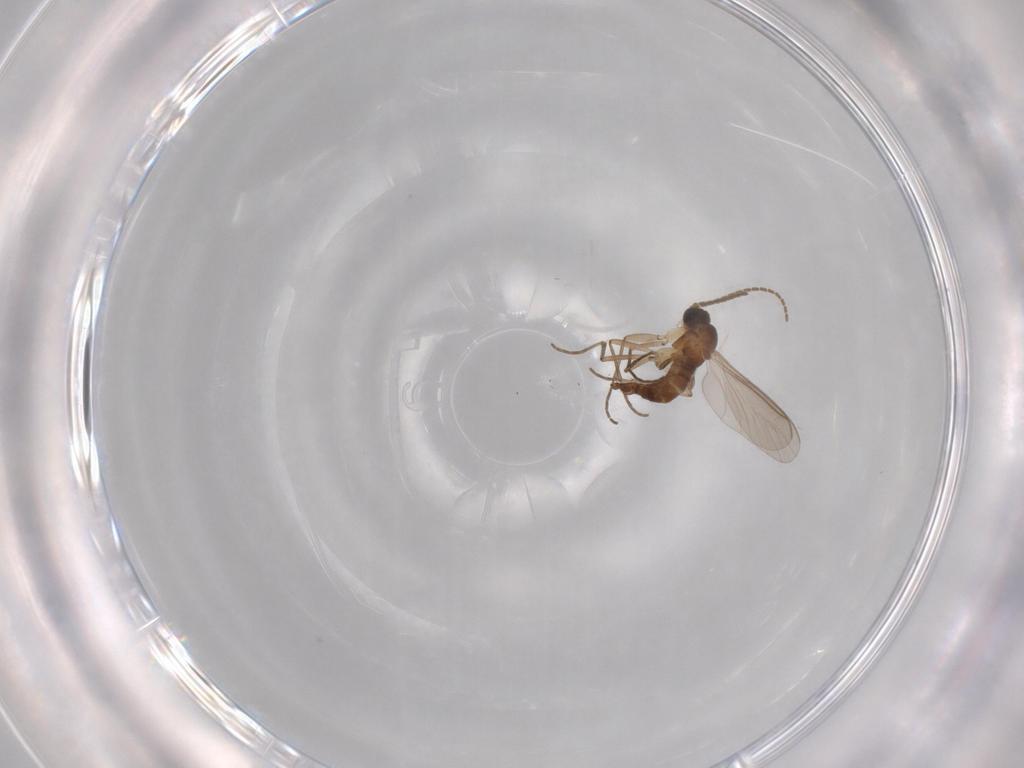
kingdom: Animalia
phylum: Arthropoda
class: Insecta
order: Diptera
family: Sciaridae
